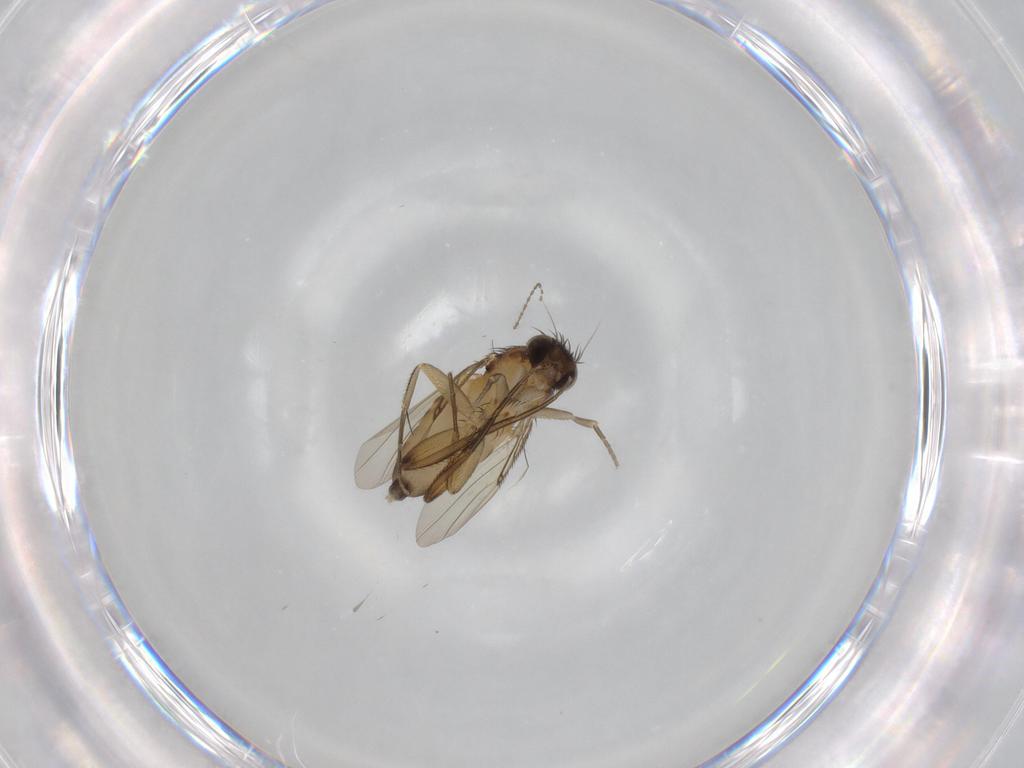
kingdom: Animalia
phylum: Arthropoda
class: Insecta
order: Diptera
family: Phoridae
